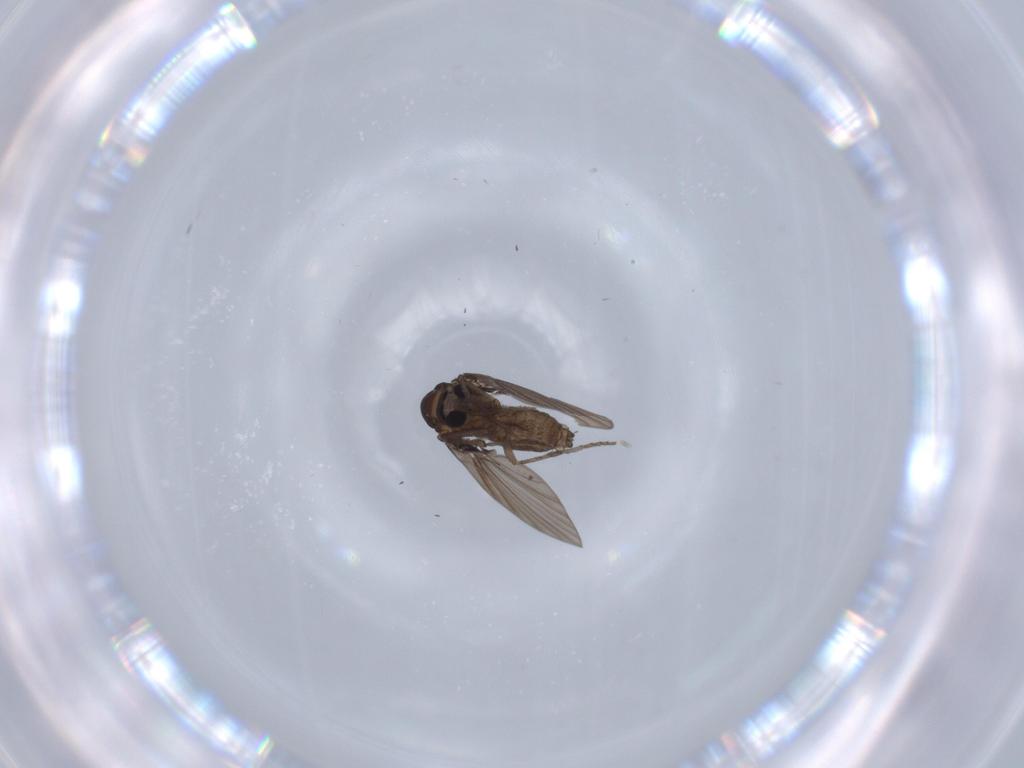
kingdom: Animalia
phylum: Arthropoda
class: Insecta
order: Diptera
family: Psychodidae
